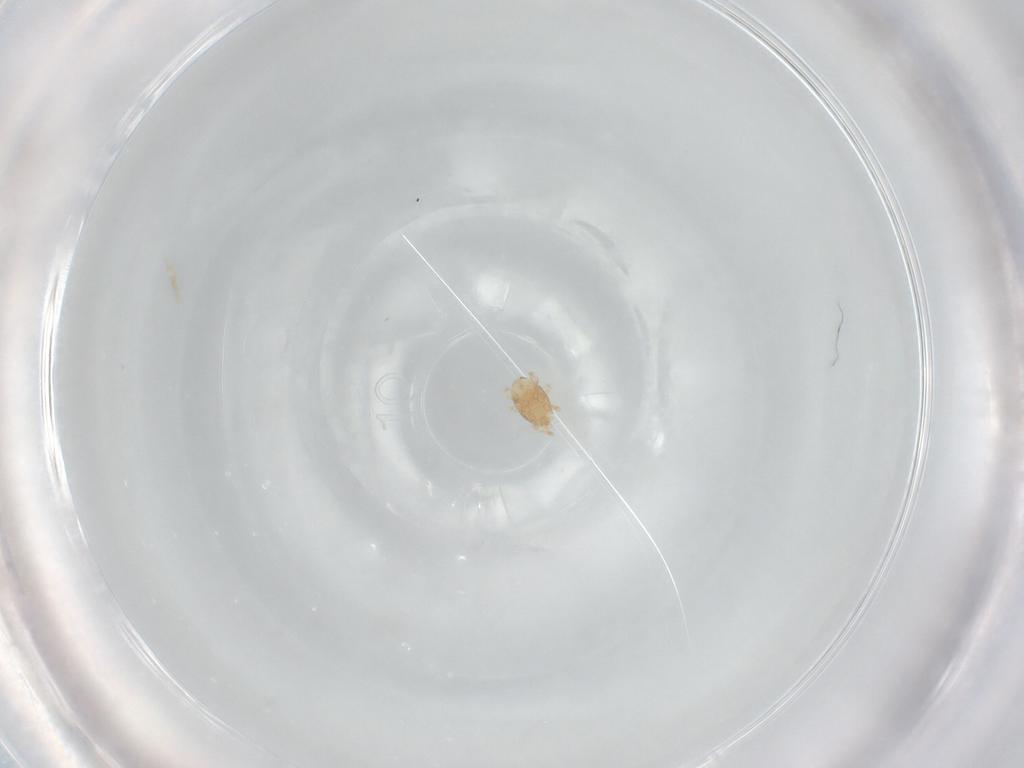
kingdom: Animalia
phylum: Arthropoda
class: Arachnida
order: Mesostigmata
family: Melicharidae
